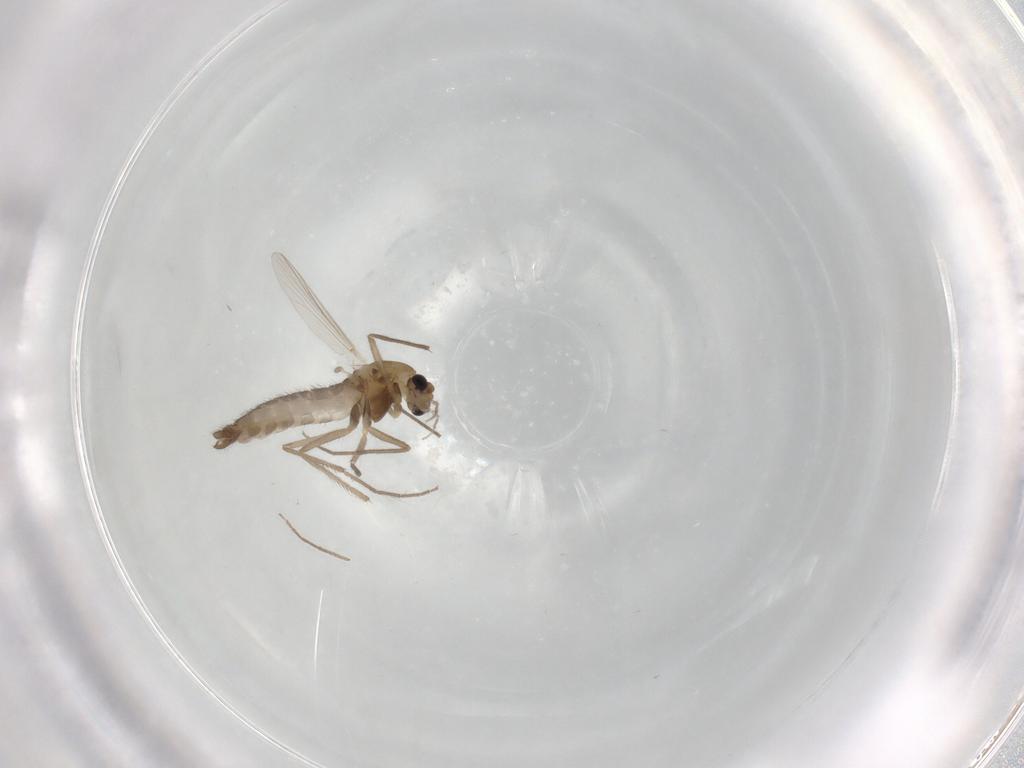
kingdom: Animalia
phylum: Arthropoda
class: Insecta
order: Diptera
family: Chironomidae
